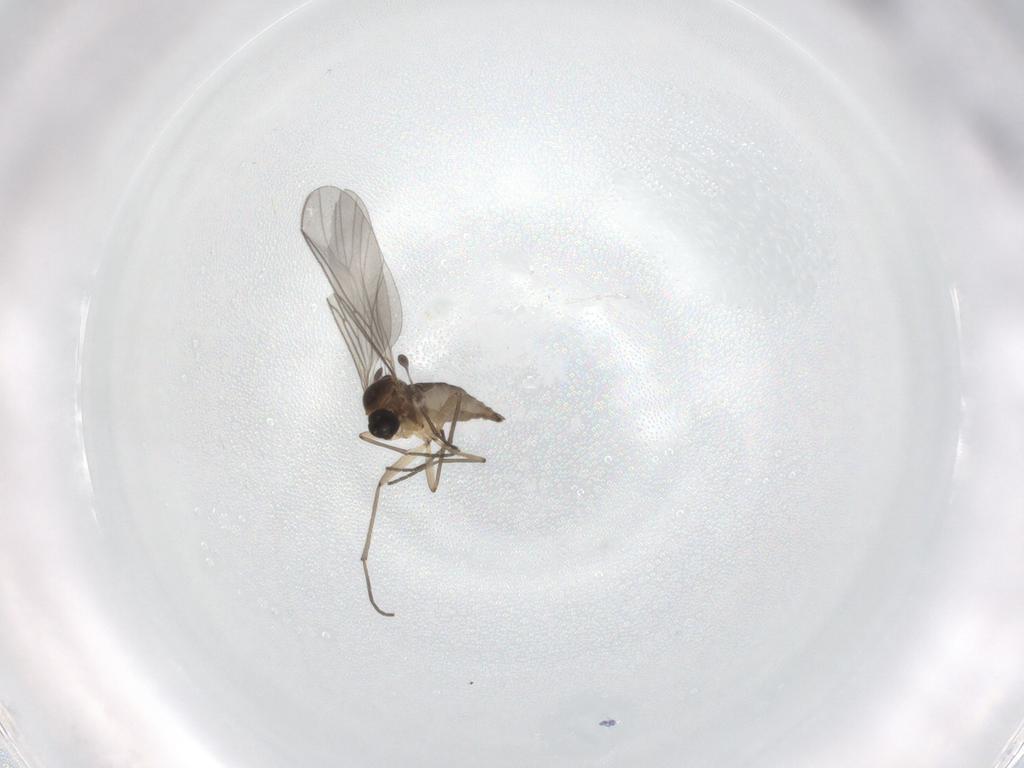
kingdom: Animalia
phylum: Arthropoda
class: Insecta
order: Diptera
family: Sciaridae
